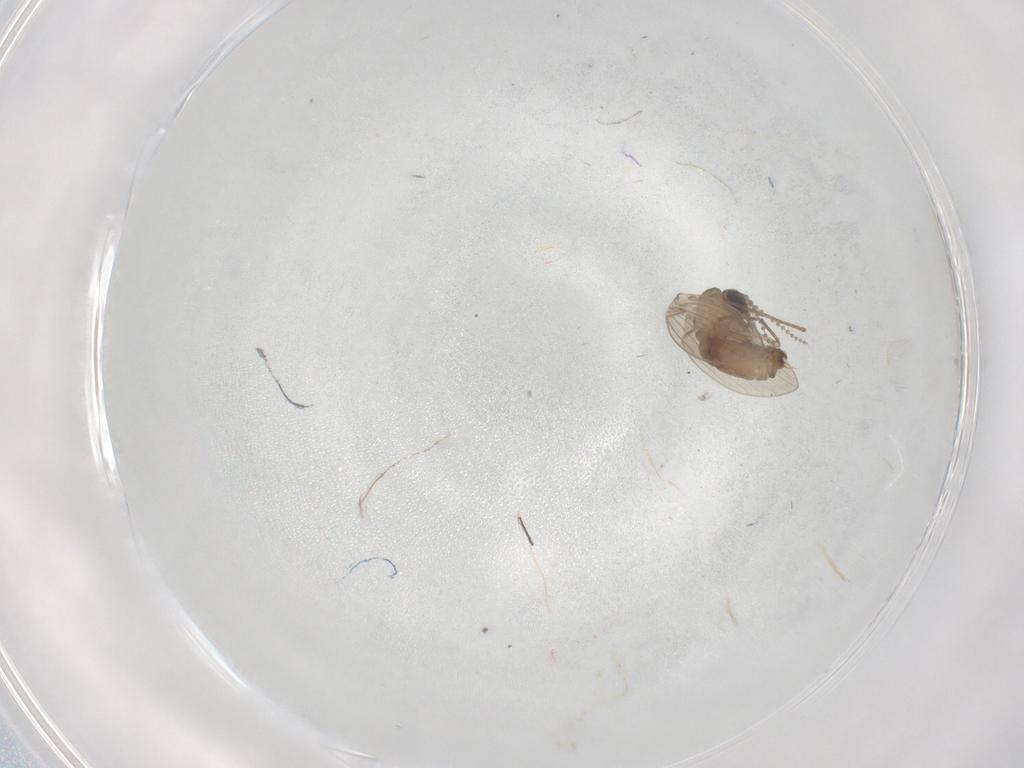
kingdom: Animalia
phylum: Arthropoda
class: Insecta
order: Diptera
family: Psychodidae
